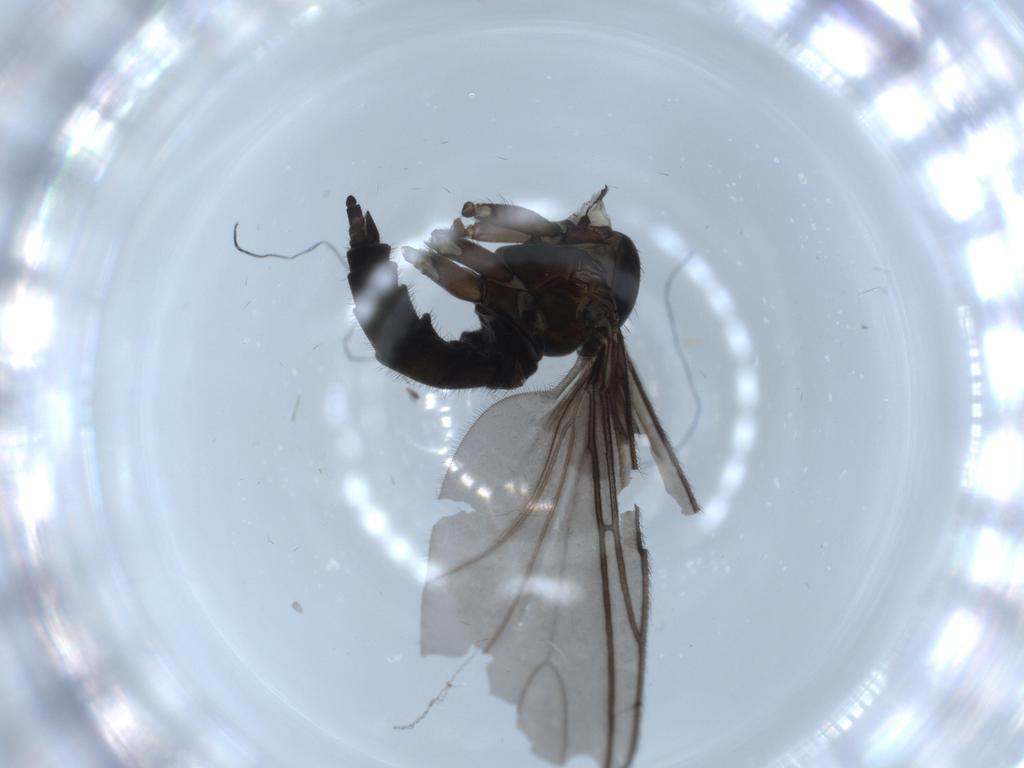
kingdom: Animalia
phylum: Arthropoda
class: Insecta
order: Diptera
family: Sciaridae
